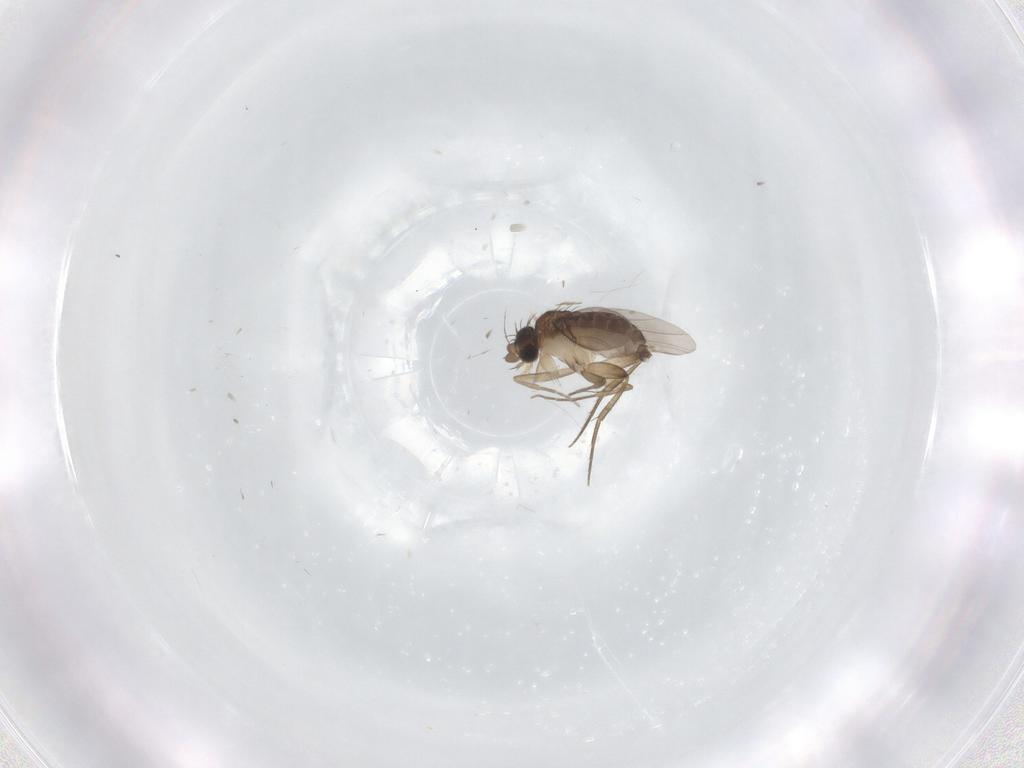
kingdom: Animalia
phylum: Arthropoda
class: Insecta
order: Diptera
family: Phoridae
